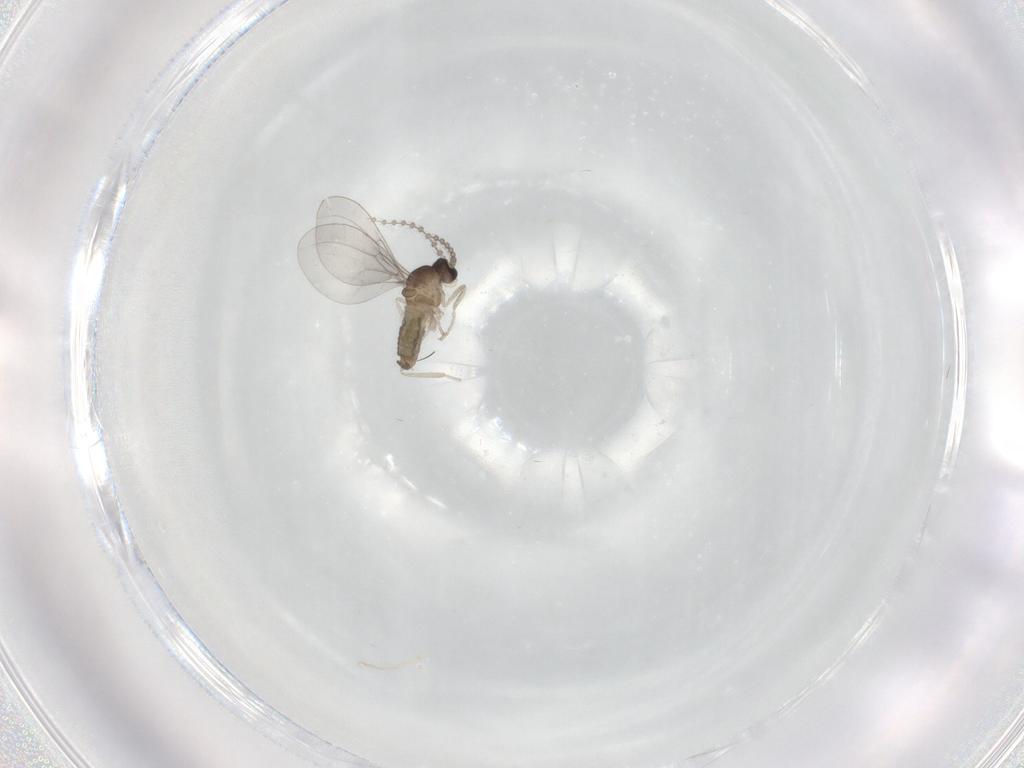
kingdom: Animalia
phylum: Arthropoda
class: Insecta
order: Diptera
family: Cecidomyiidae
